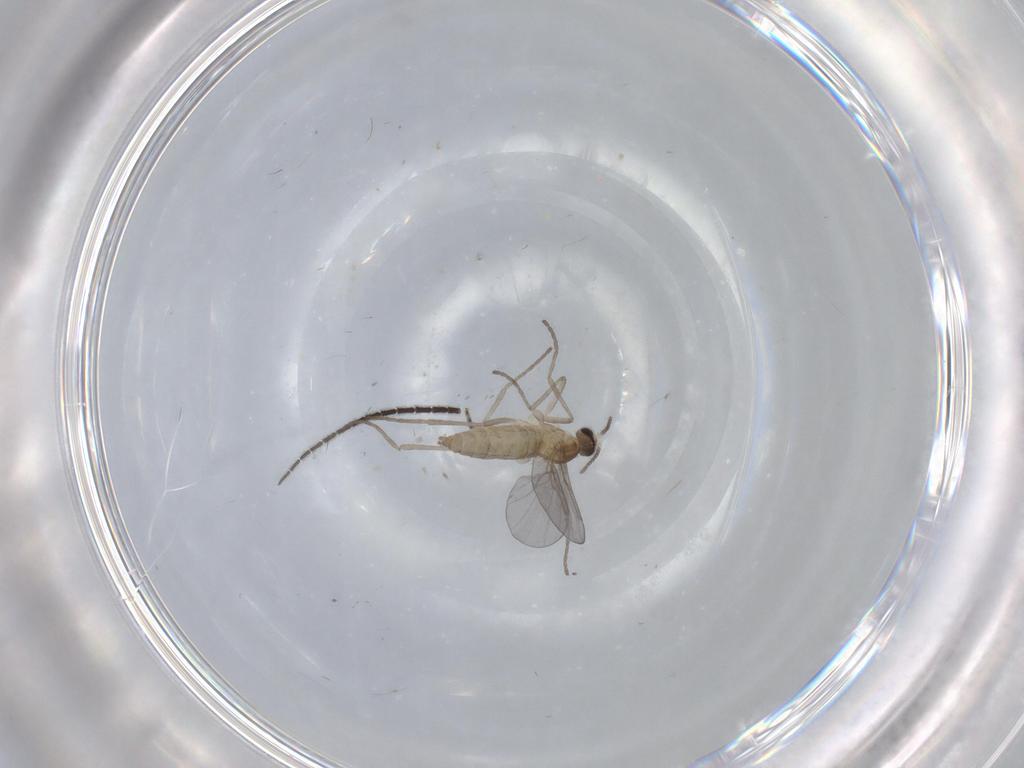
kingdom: Animalia
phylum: Arthropoda
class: Insecta
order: Diptera
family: Cecidomyiidae
